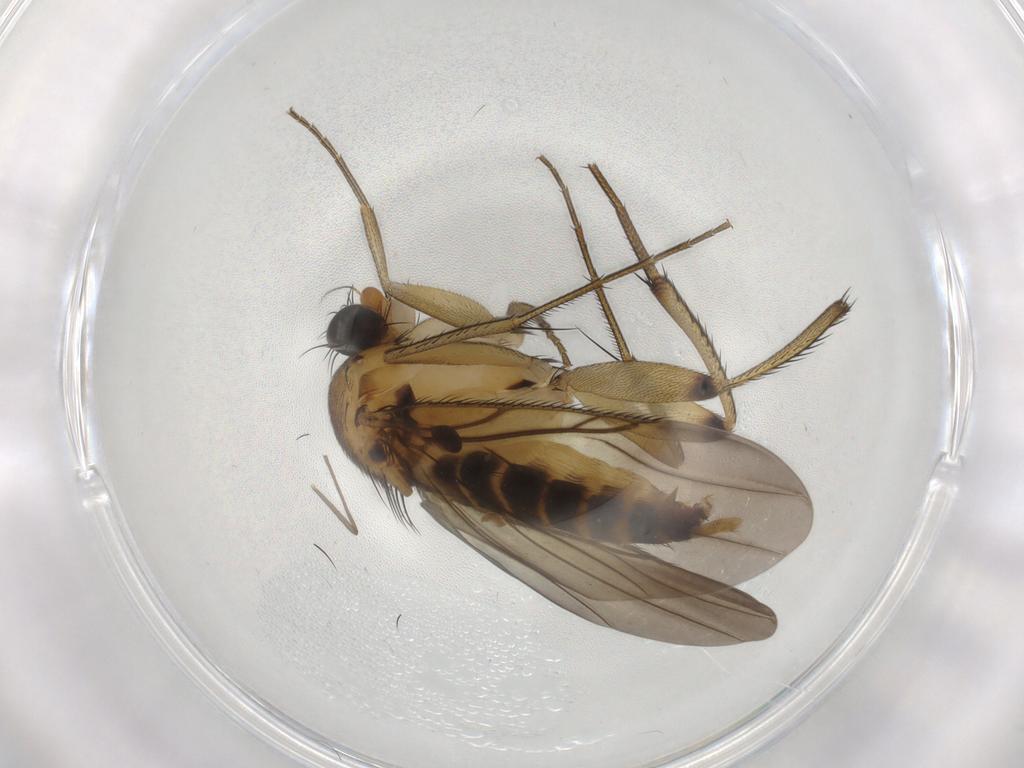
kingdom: Animalia
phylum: Arthropoda
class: Insecta
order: Diptera
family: Phoridae
